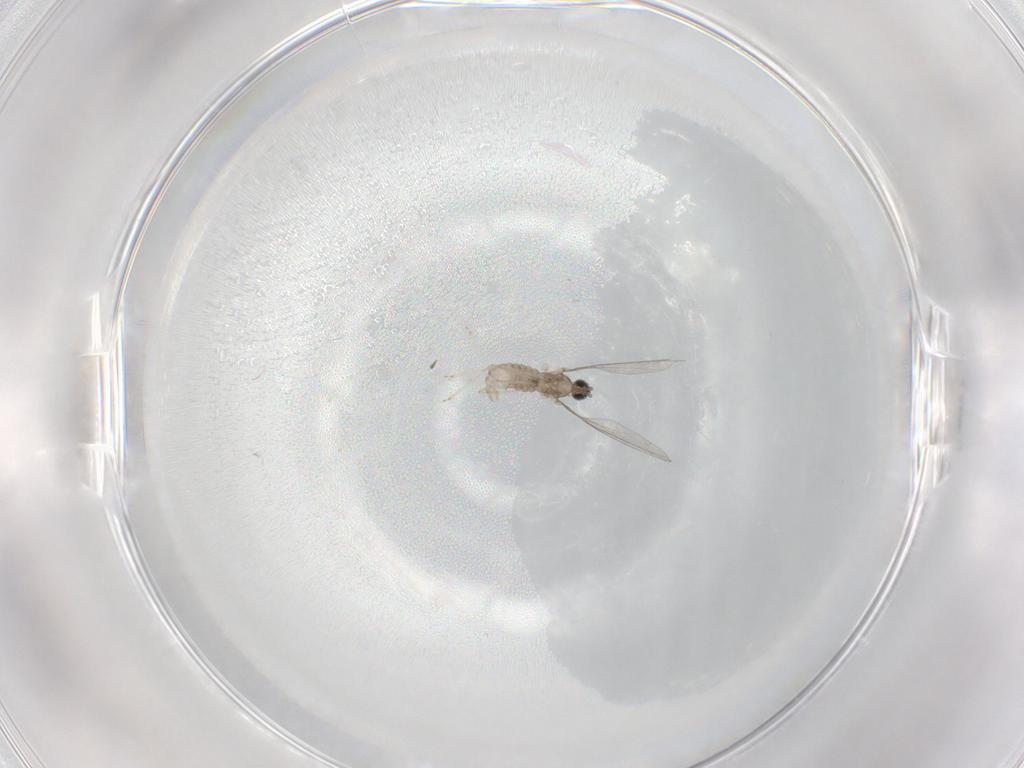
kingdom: Animalia
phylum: Arthropoda
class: Insecta
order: Diptera
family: Cecidomyiidae
